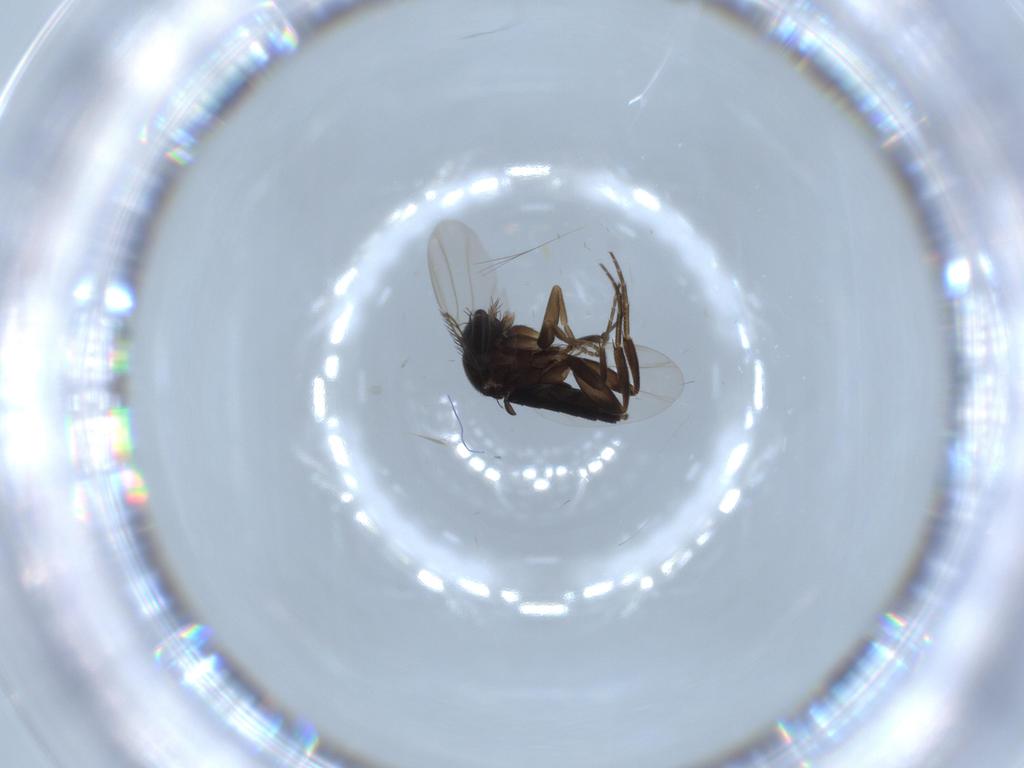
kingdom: Animalia
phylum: Arthropoda
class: Insecta
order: Diptera
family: Phoridae
